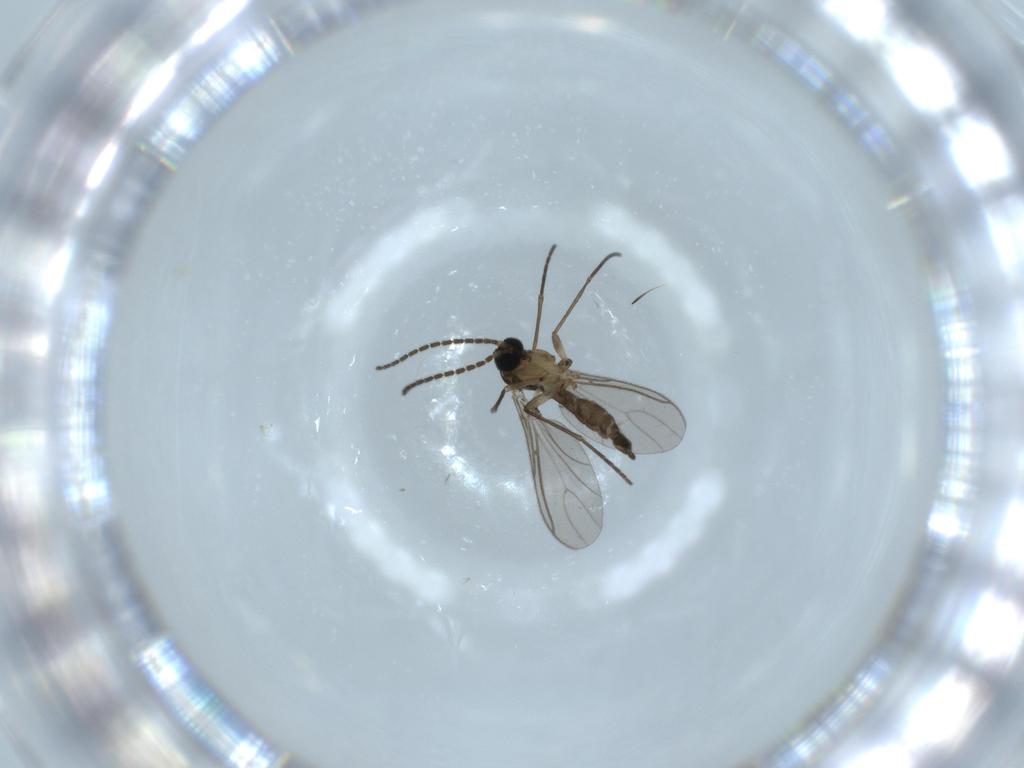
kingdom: Animalia
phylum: Arthropoda
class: Insecta
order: Diptera
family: Sciaridae
